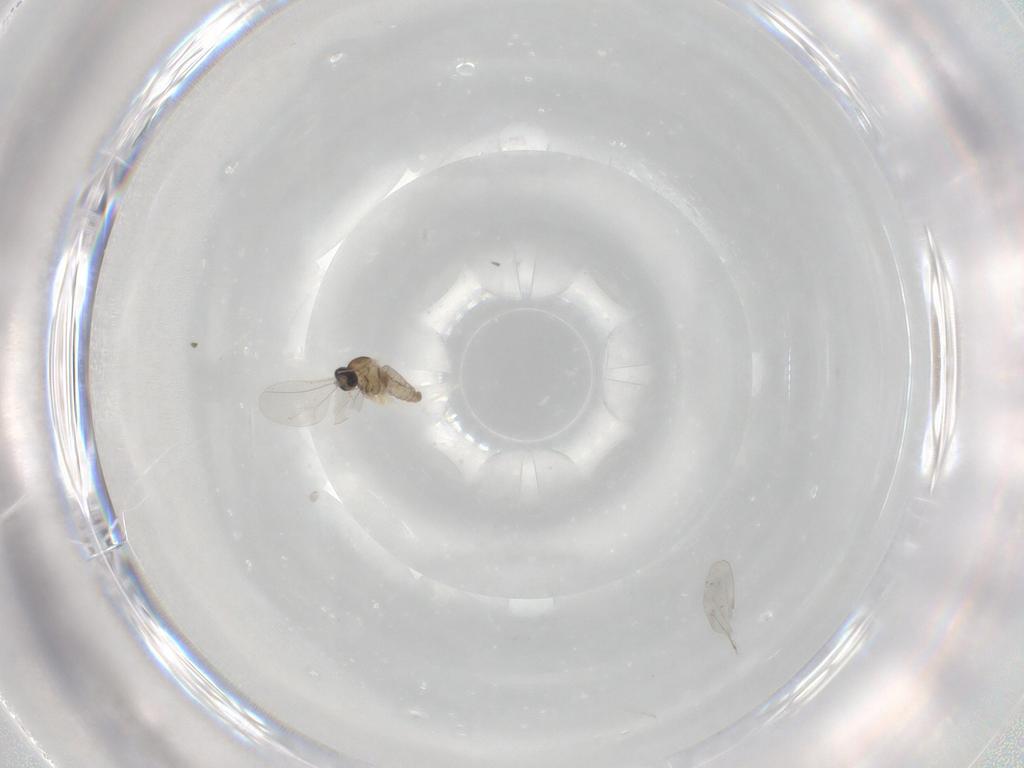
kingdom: Animalia
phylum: Arthropoda
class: Insecta
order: Diptera
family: Cecidomyiidae
